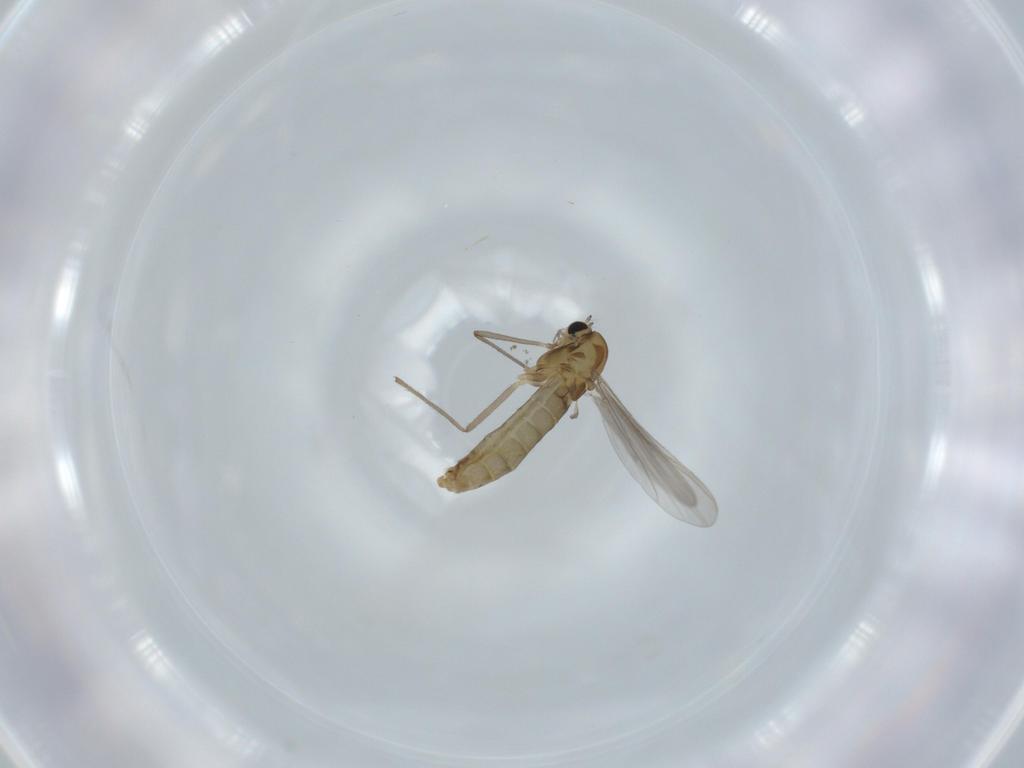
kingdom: Animalia
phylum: Arthropoda
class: Insecta
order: Diptera
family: Chironomidae
